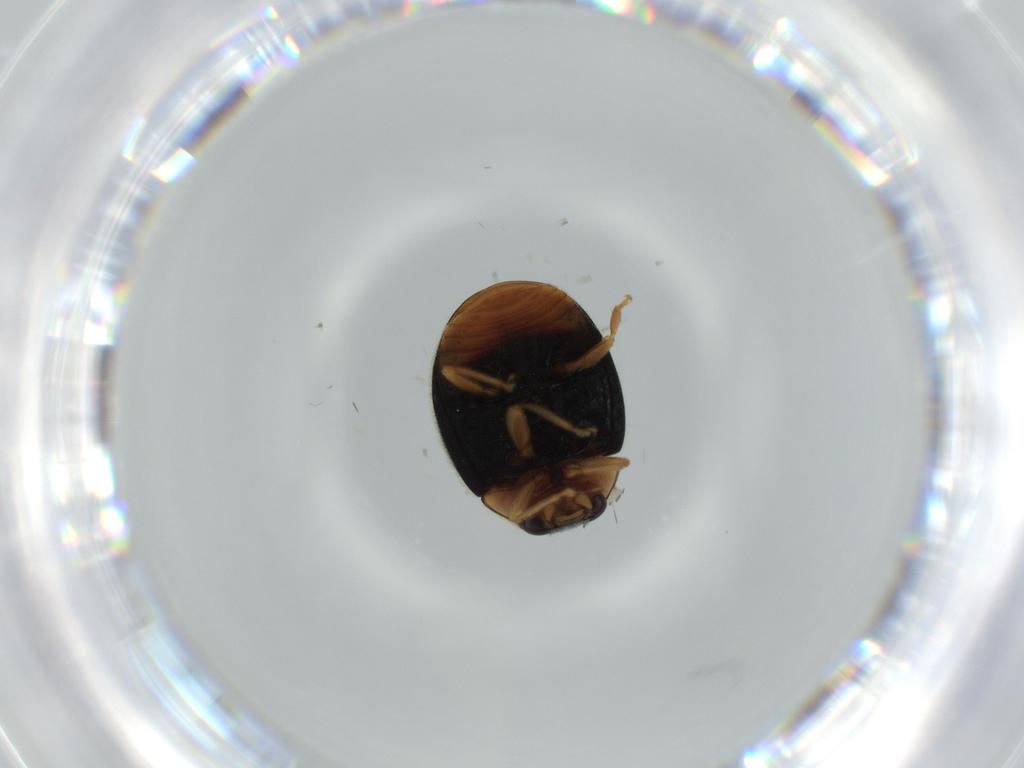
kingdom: Animalia
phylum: Arthropoda
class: Insecta
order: Coleoptera
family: Coccinellidae
